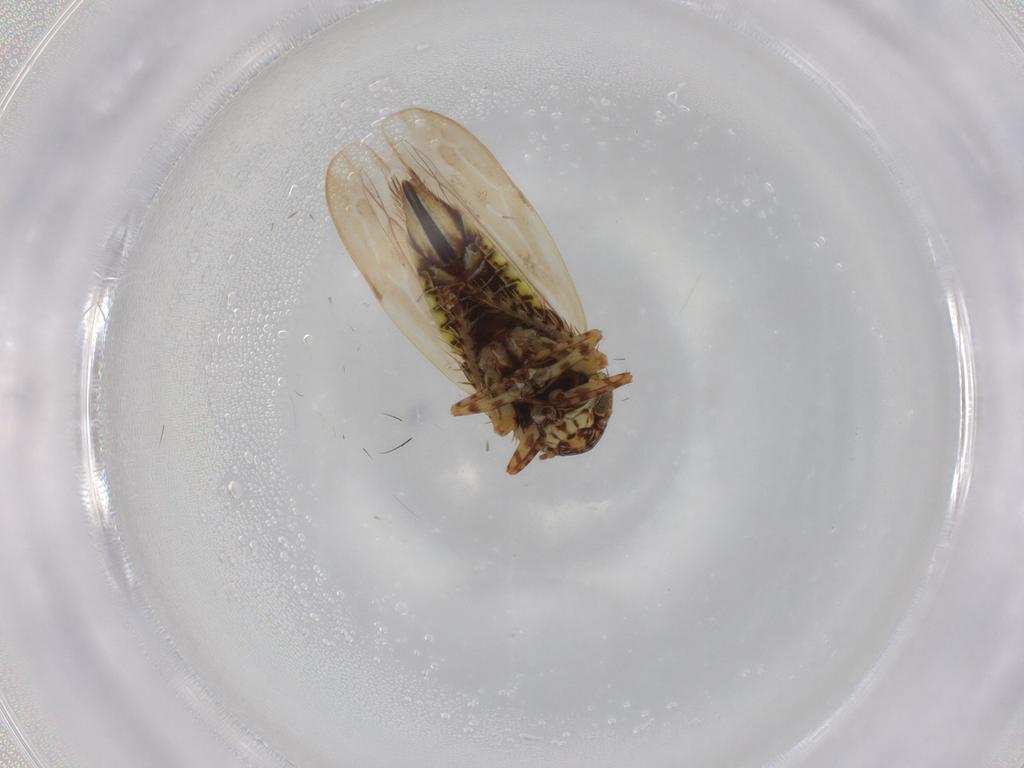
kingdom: Animalia
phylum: Arthropoda
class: Insecta
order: Hemiptera
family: Cicadellidae
